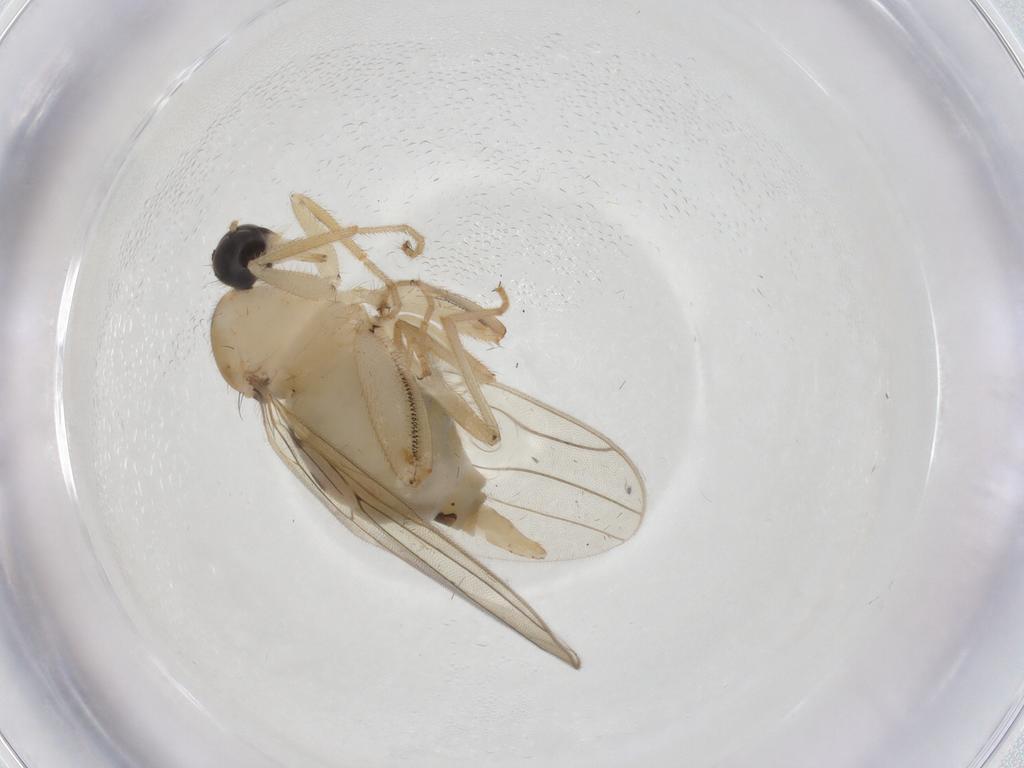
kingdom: Animalia
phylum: Arthropoda
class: Insecta
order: Diptera
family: Hybotidae
